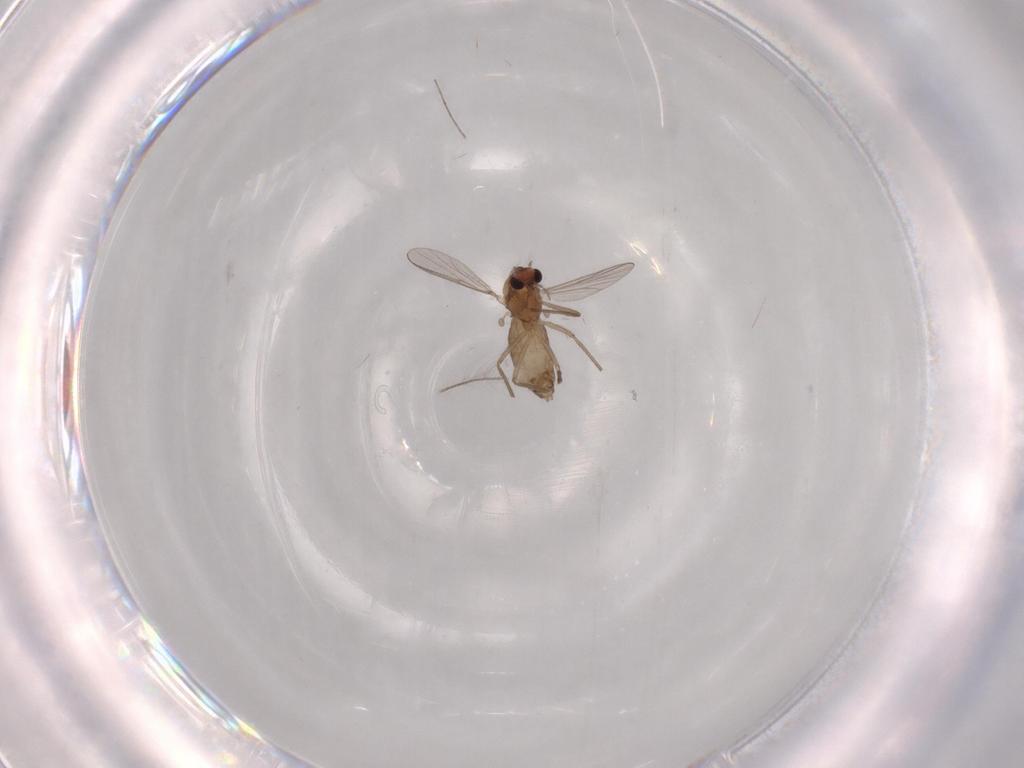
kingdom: Animalia
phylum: Arthropoda
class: Insecta
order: Diptera
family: Chironomidae
